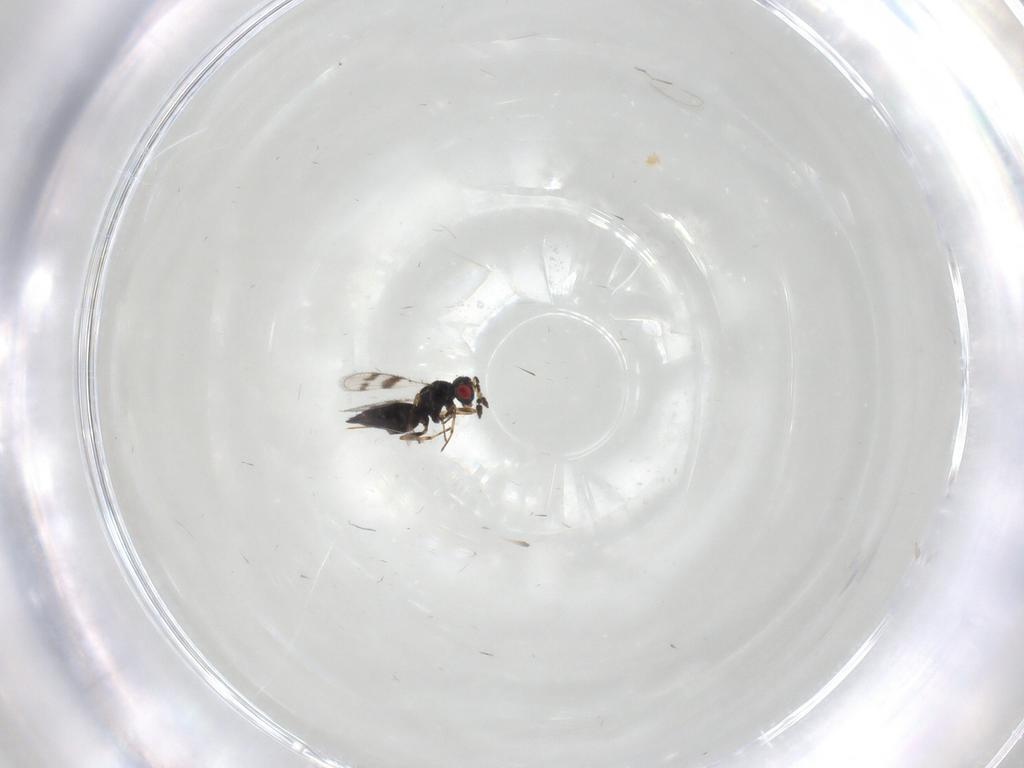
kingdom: Animalia
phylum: Arthropoda
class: Insecta
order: Hymenoptera
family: Eulophidae
